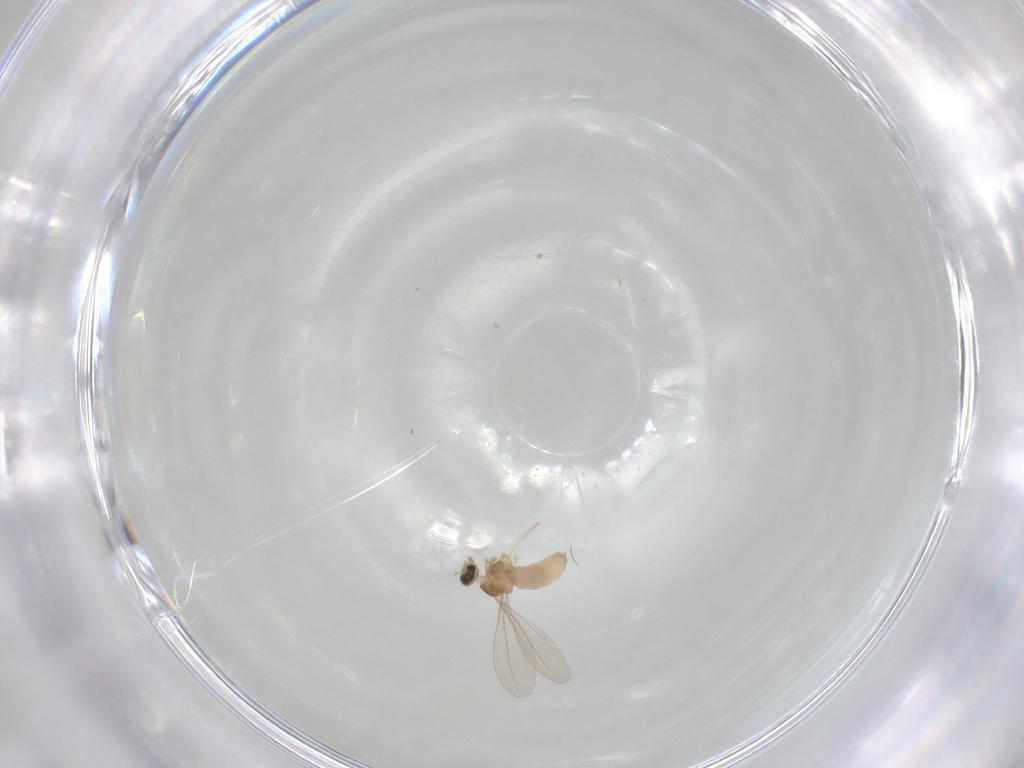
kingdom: Animalia
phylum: Arthropoda
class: Insecta
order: Diptera
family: Cecidomyiidae
